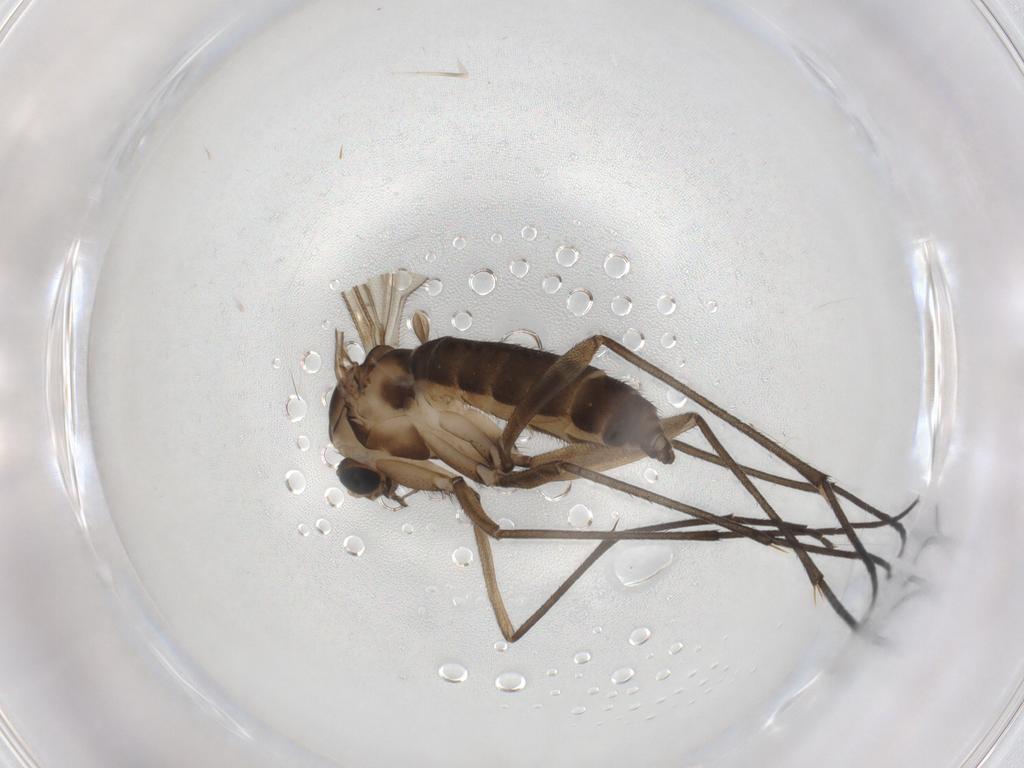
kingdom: Animalia
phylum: Arthropoda
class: Insecta
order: Diptera
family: Sciaridae
